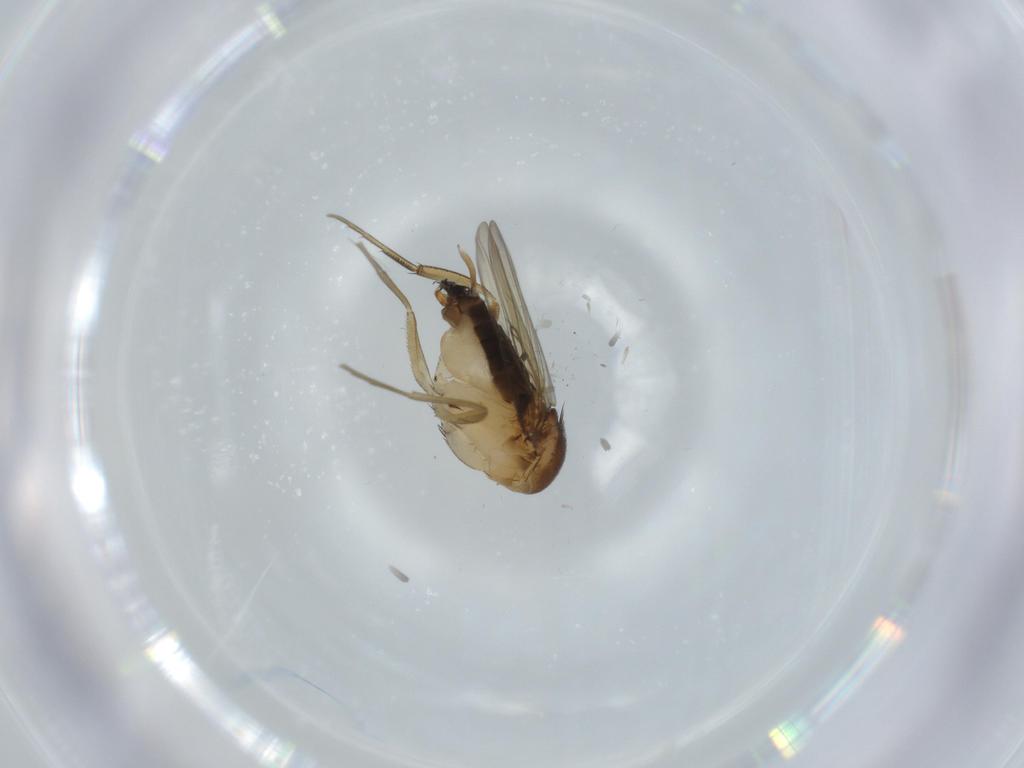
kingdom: Animalia
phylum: Arthropoda
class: Insecta
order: Diptera
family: Phoridae
